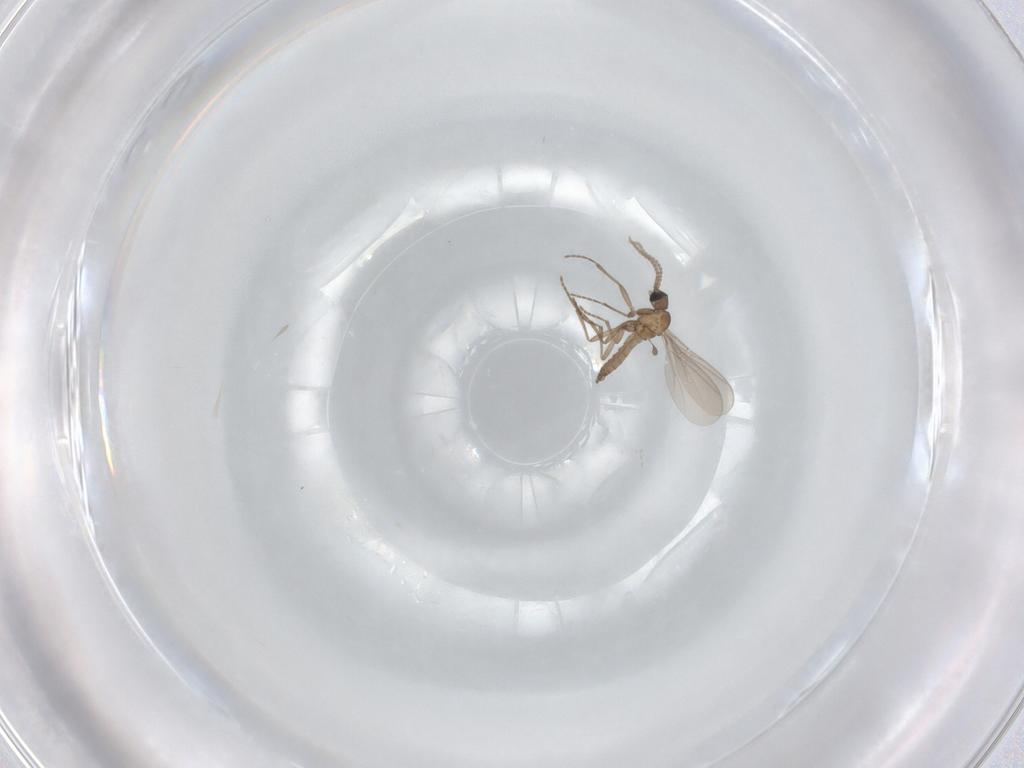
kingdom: Animalia
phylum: Arthropoda
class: Insecta
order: Diptera
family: Sciaridae
